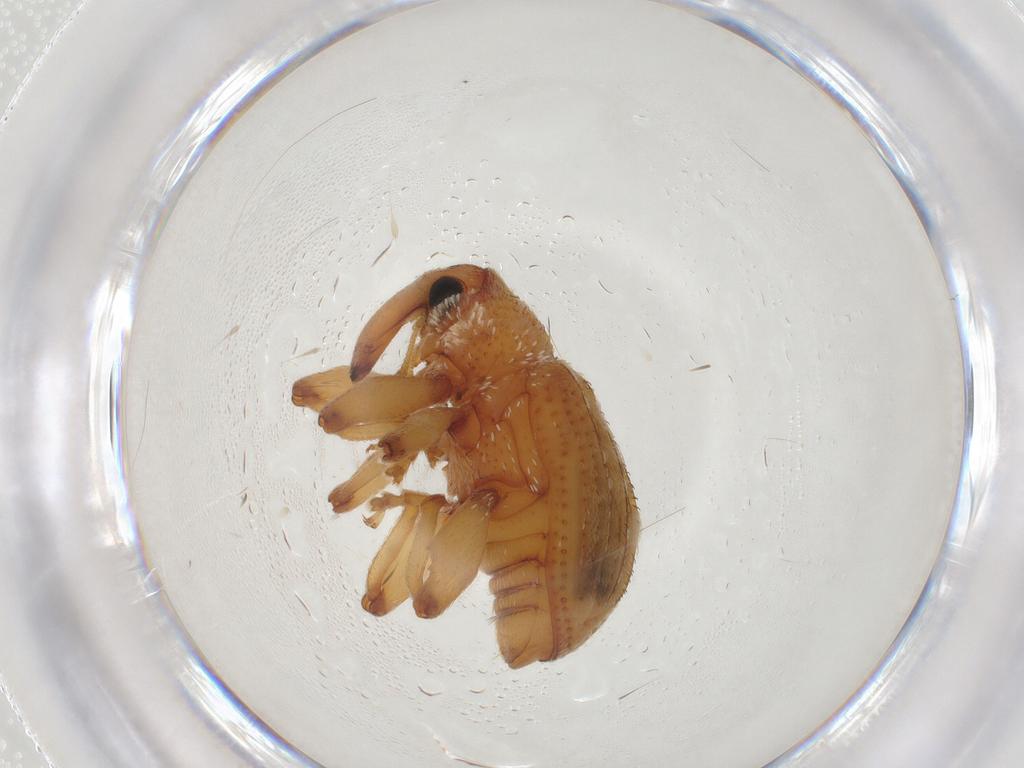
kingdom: Animalia
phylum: Arthropoda
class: Insecta
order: Coleoptera
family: Curculionidae
